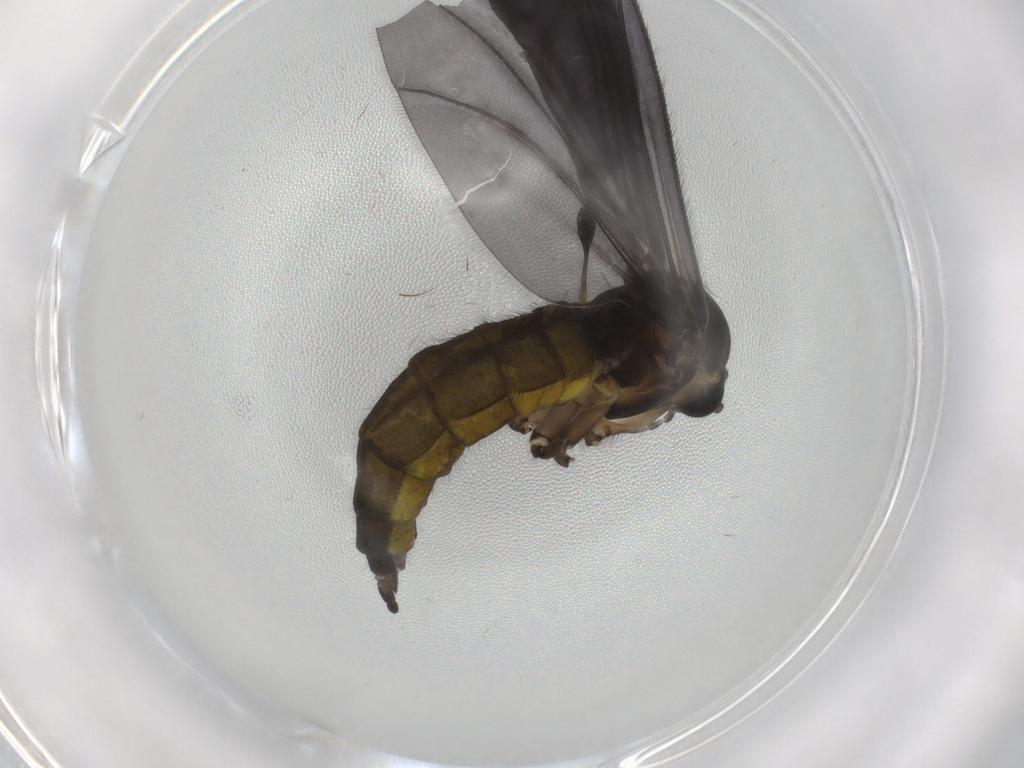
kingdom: Animalia
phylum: Arthropoda
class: Insecta
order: Diptera
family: Sciaridae
